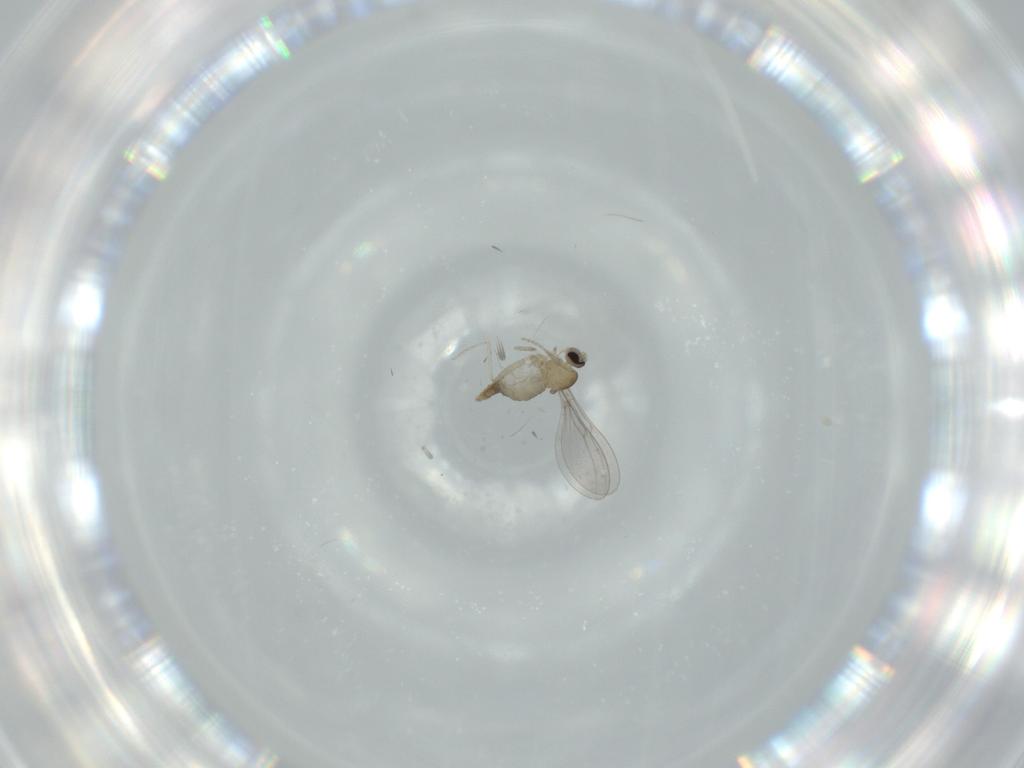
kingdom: Animalia
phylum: Arthropoda
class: Insecta
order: Diptera
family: Cecidomyiidae
